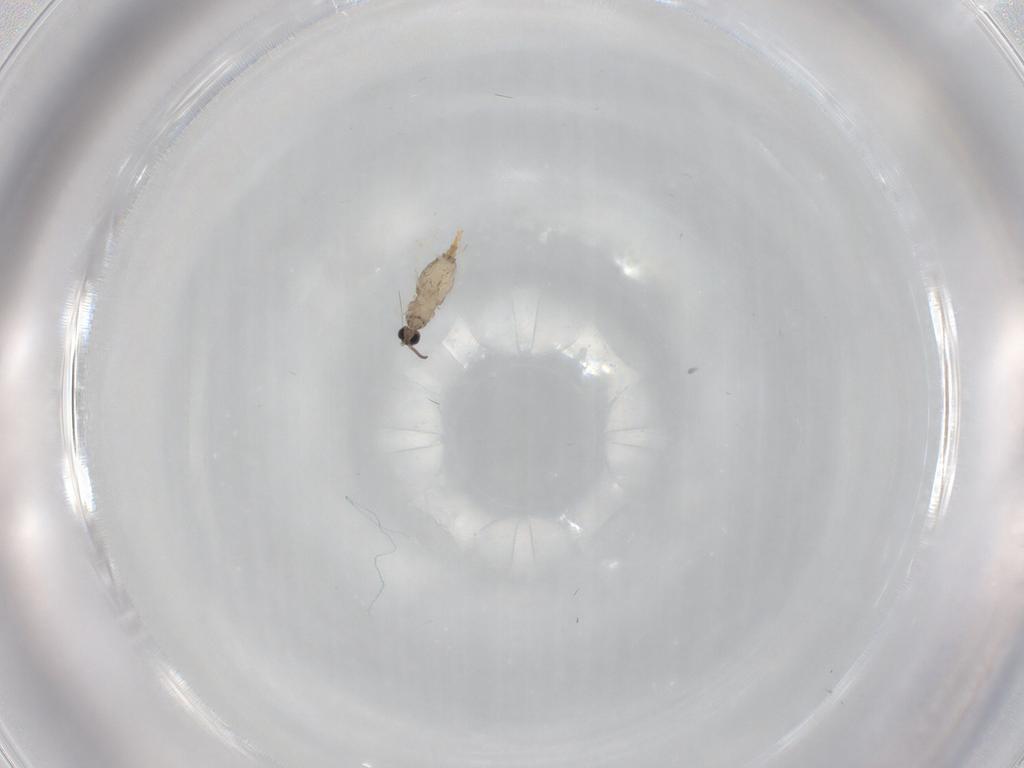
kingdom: Animalia
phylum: Arthropoda
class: Insecta
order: Diptera
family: Cecidomyiidae
